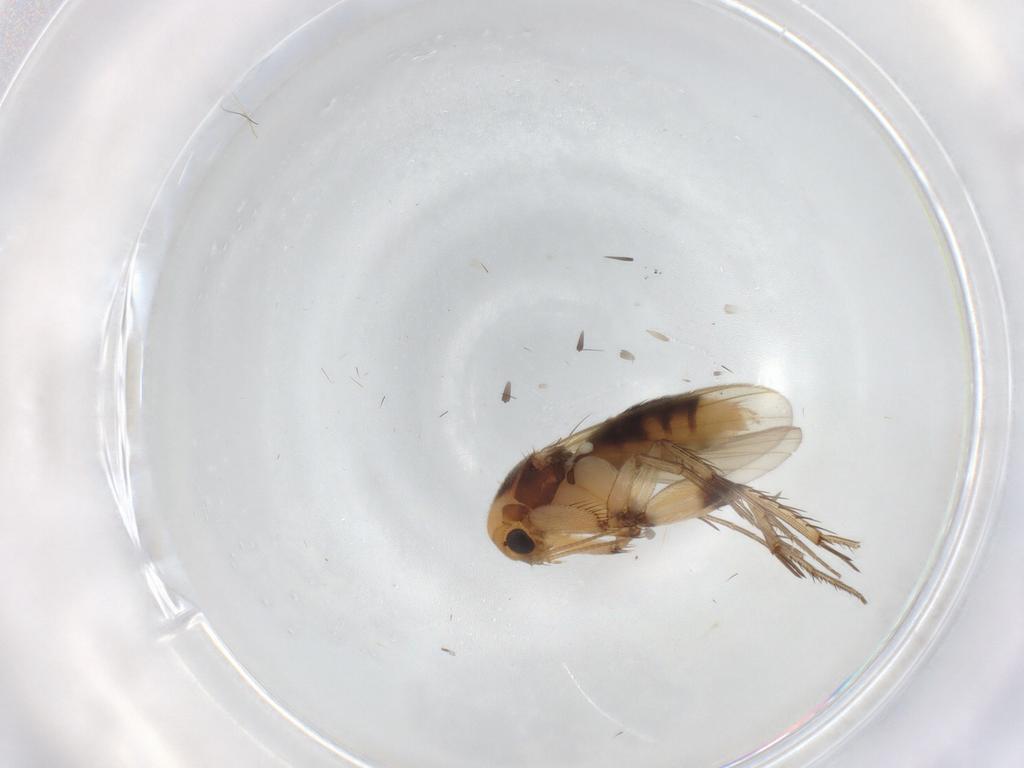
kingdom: Animalia
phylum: Arthropoda
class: Insecta
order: Diptera
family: Mycetophilidae
